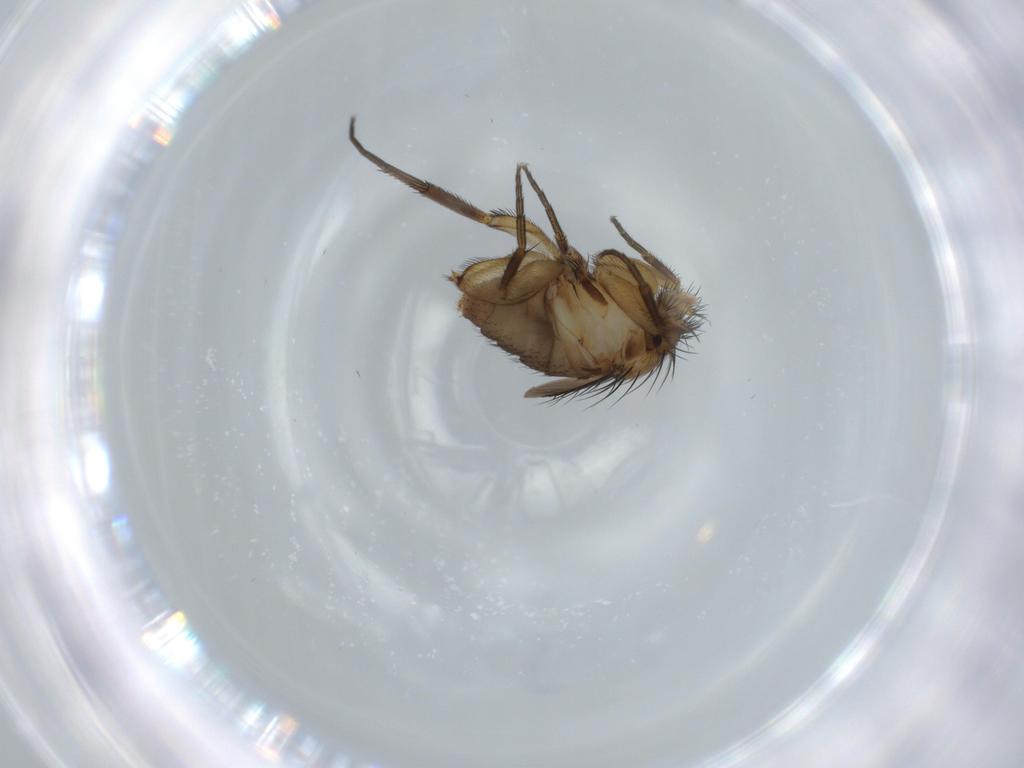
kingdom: Animalia
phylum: Arthropoda
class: Insecta
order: Diptera
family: Phoridae
